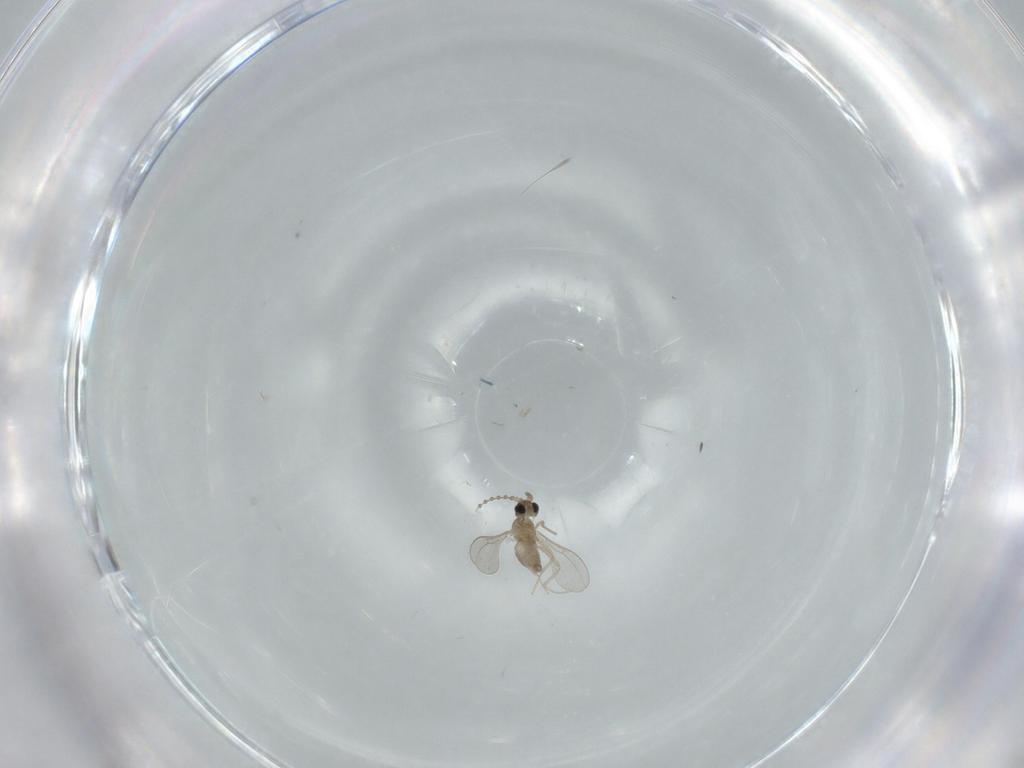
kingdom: Animalia
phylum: Arthropoda
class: Insecta
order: Diptera
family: Cecidomyiidae
